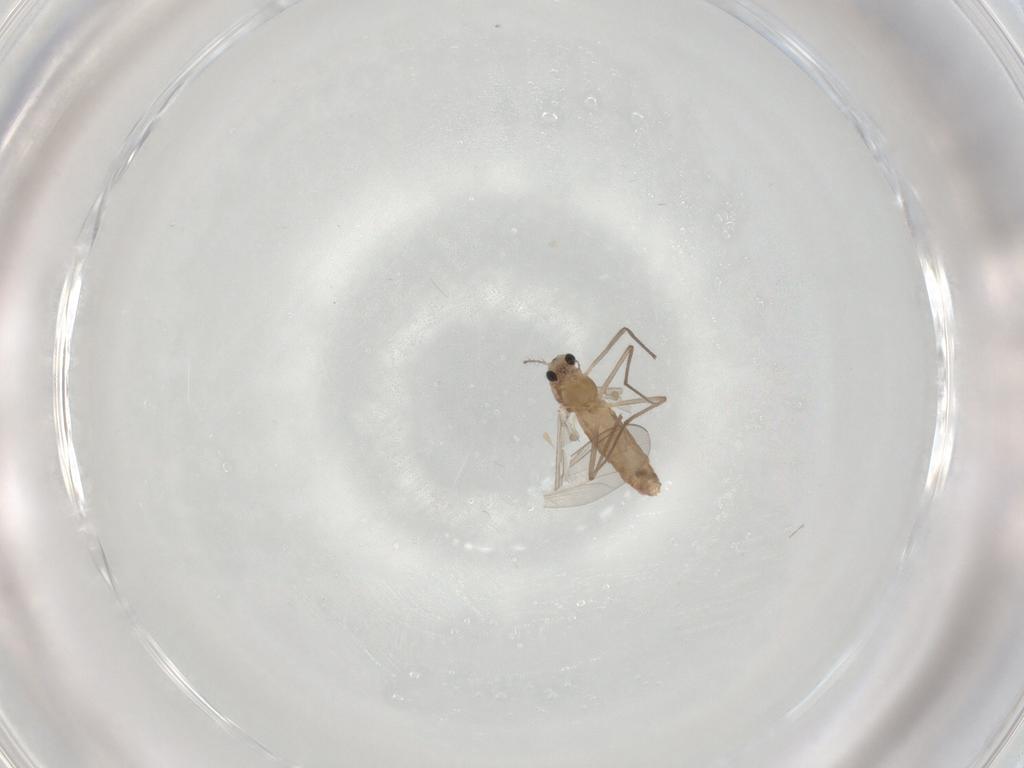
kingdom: Animalia
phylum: Arthropoda
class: Insecta
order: Diptera
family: Chironomidae
